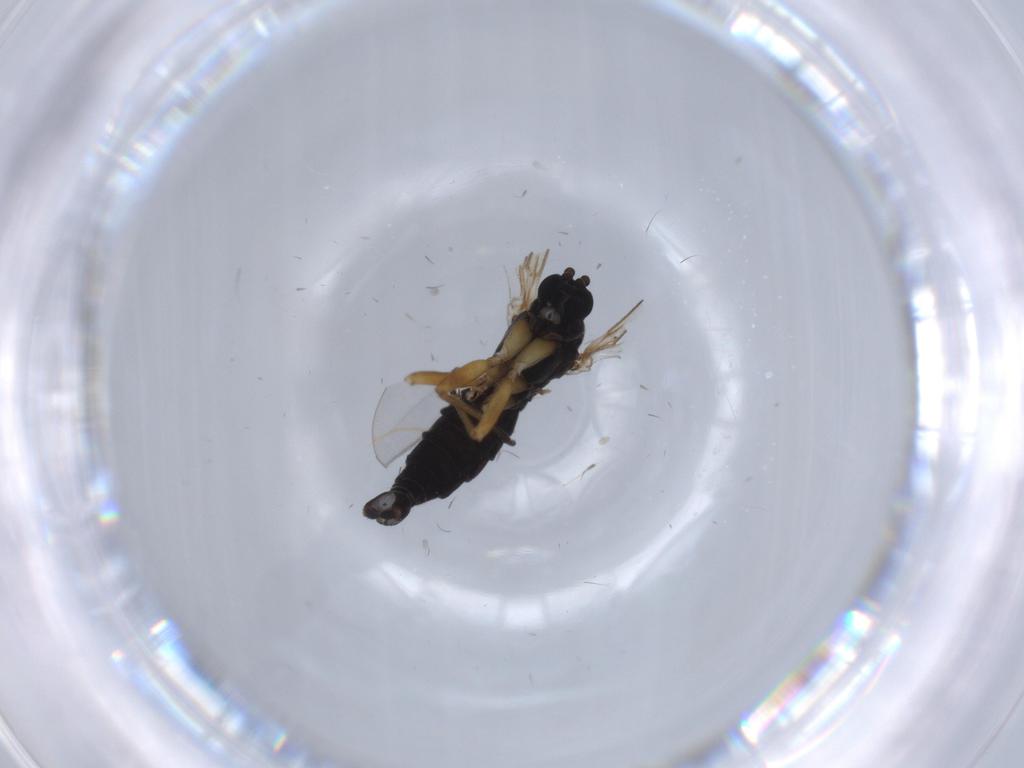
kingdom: Animalia
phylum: Arthropoda
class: Insecta
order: Diptera
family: Sciaridae
